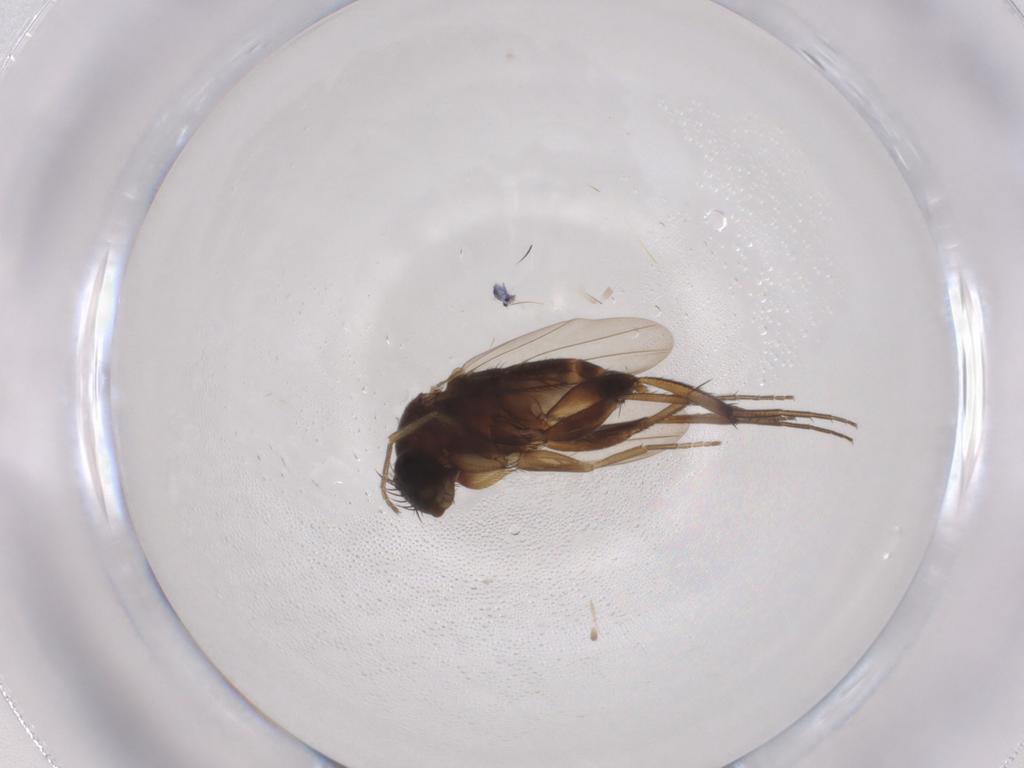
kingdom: Animalia
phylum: Arthropoda
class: Insecta
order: Diptera
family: Phoridae
